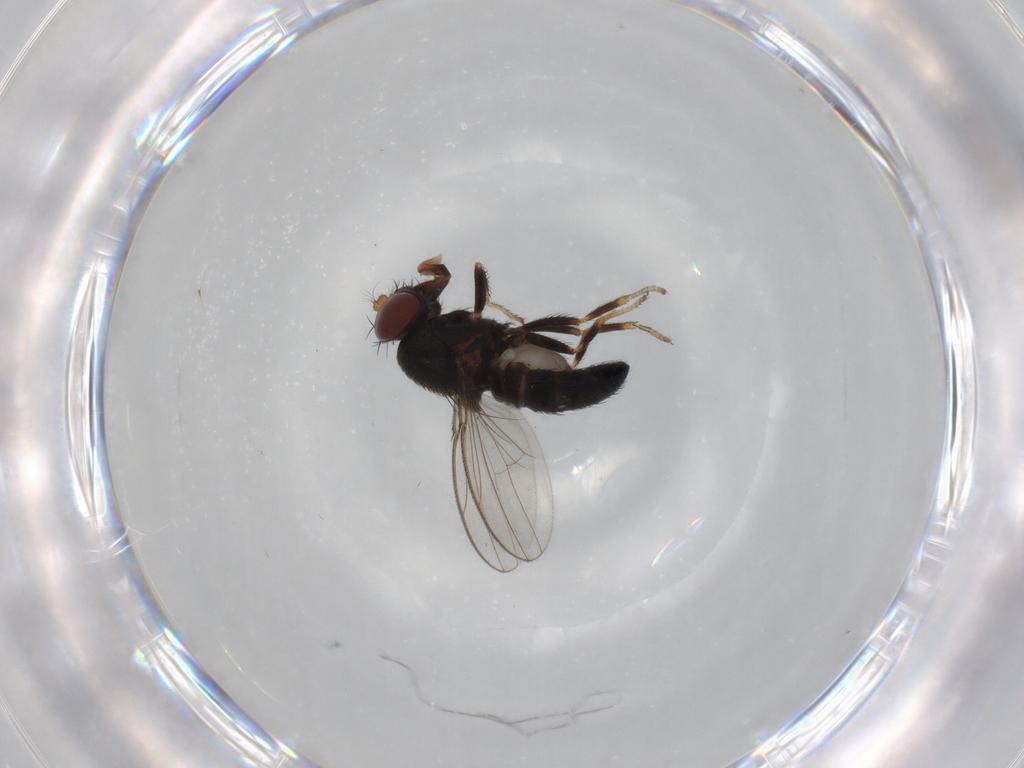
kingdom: Animalia
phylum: Arthropoda
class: Insecta
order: Diptera
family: Ephydridae
